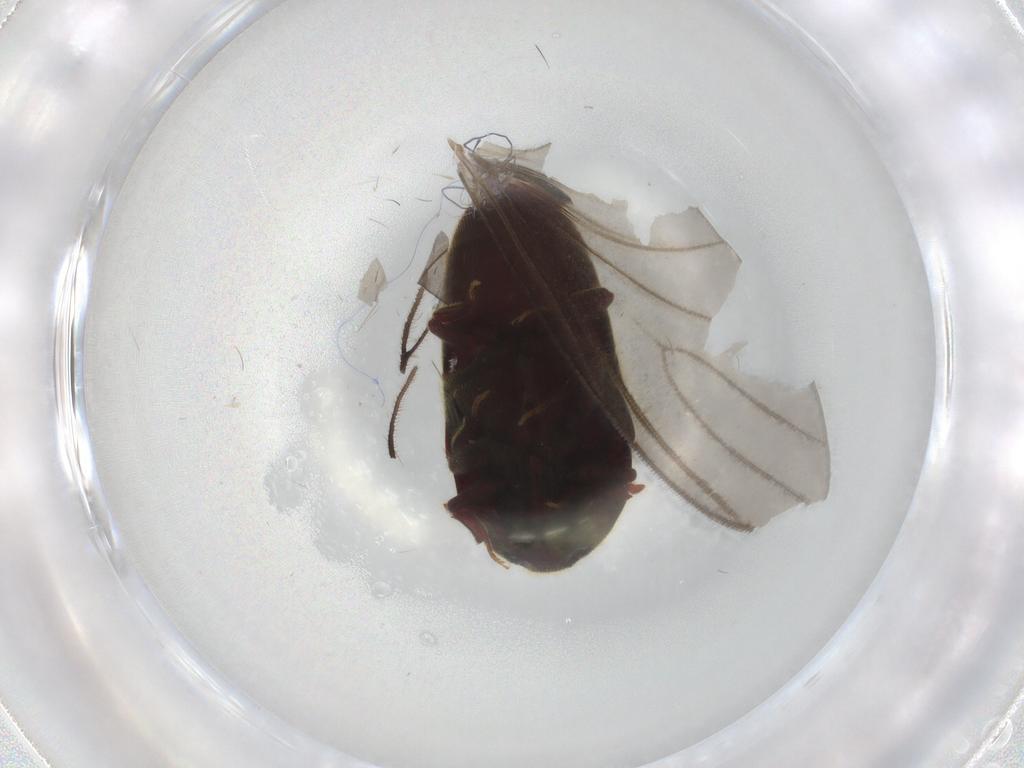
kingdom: Animalia
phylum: Arthropoda
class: Insecta
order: Coleoptera
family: Throscidae
